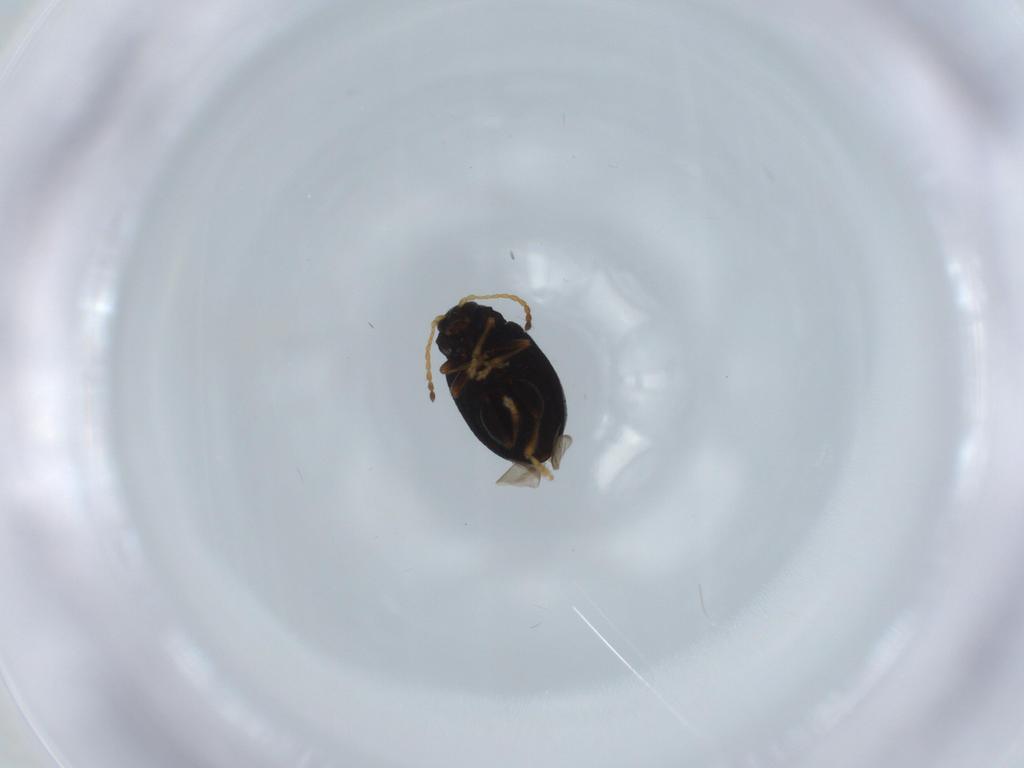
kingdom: Animalia
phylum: Arthropoda
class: Insecta
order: Coleoptera
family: Chrysomelidae
